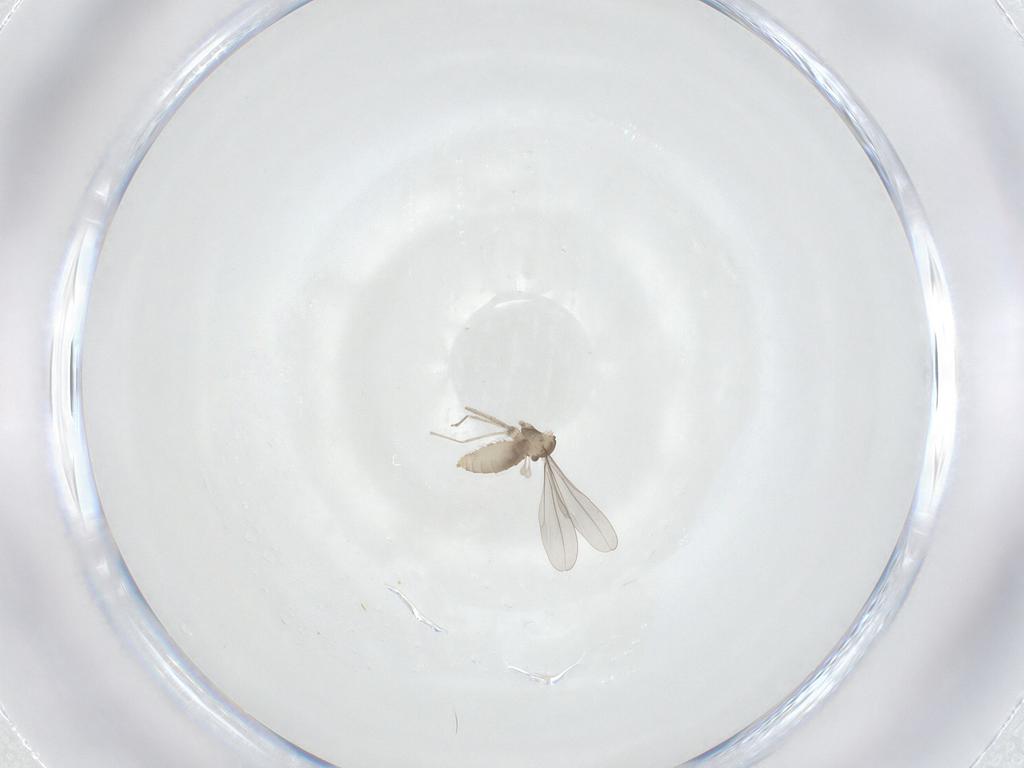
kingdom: Animalia
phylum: Arthropoda
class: Insecta
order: Diptera
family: Cecidomyiidae
